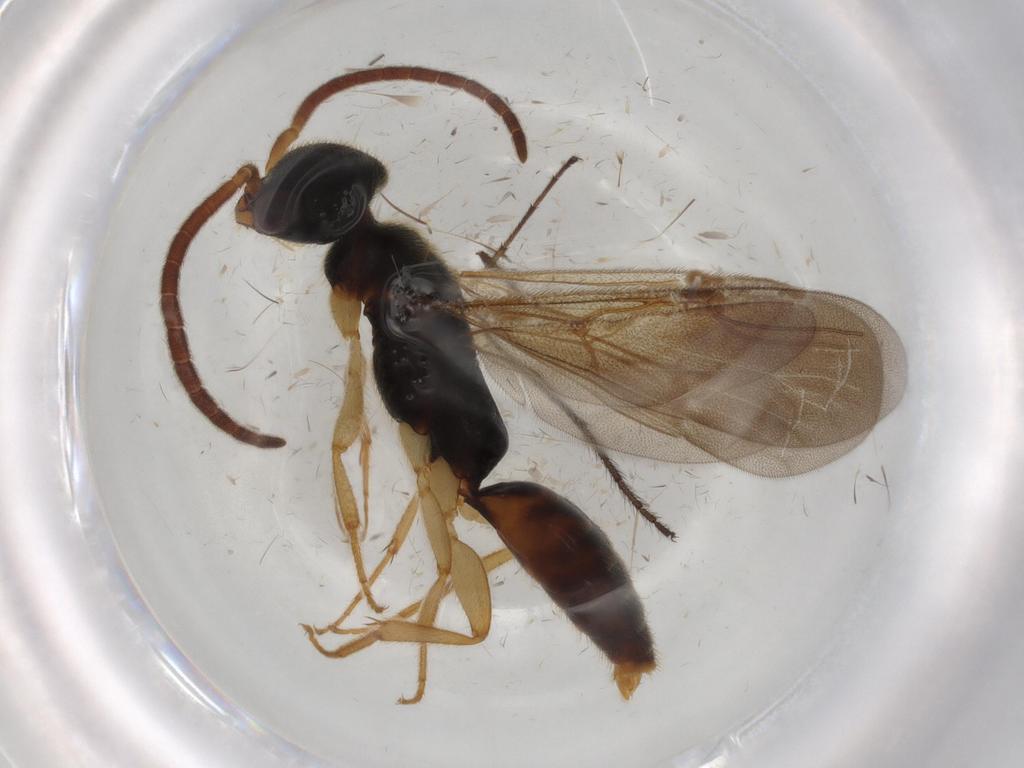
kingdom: Animalia
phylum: Arthropoda
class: Insecta
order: Hymenoptera
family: Bethylidae
